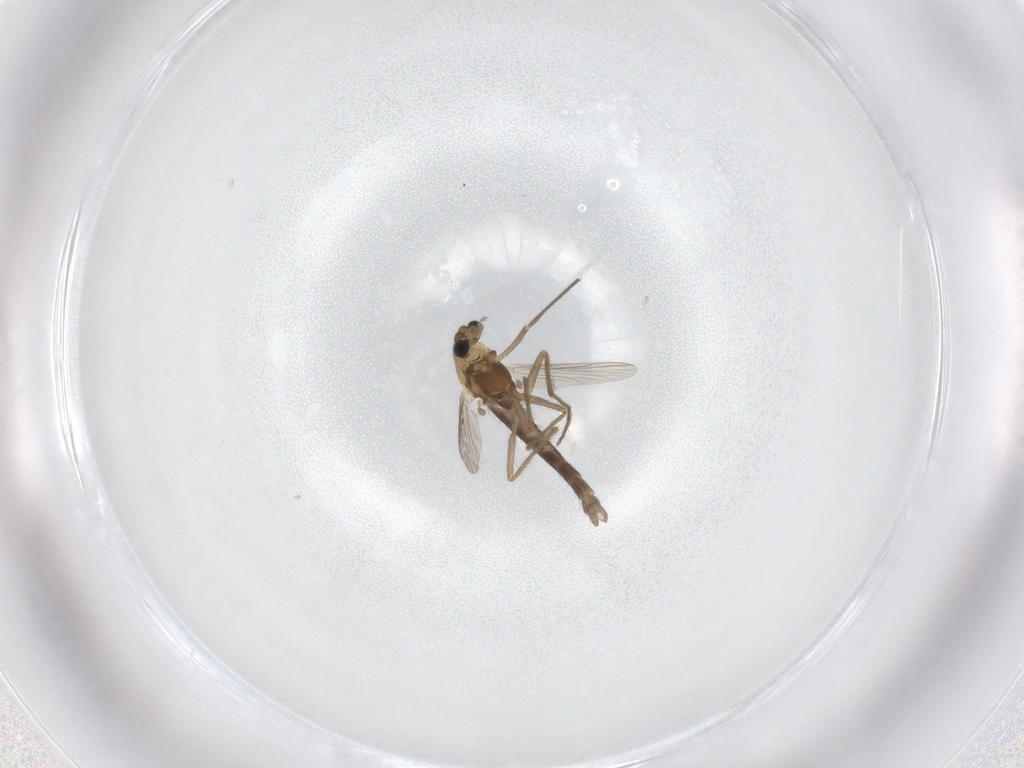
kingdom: Animalia
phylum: Arthropoda
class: Insecta
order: Diptera
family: Chironomidae
